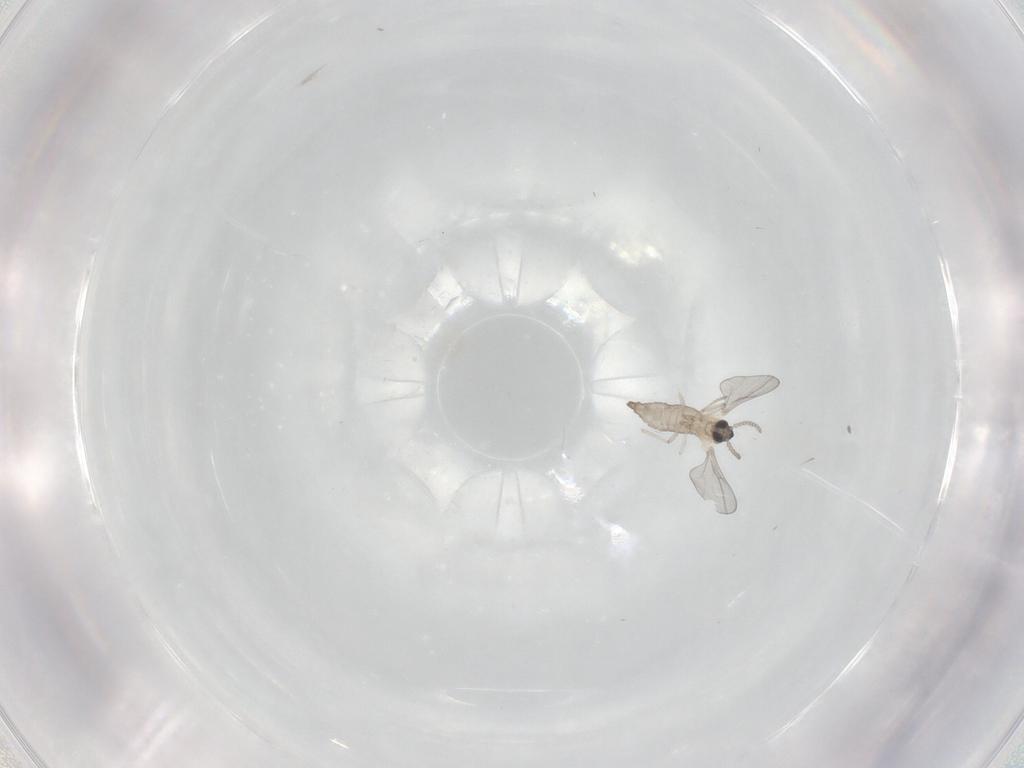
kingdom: Animalia
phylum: Arthropoda
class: Insecta
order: Diptera
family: Cecidomyiidae
